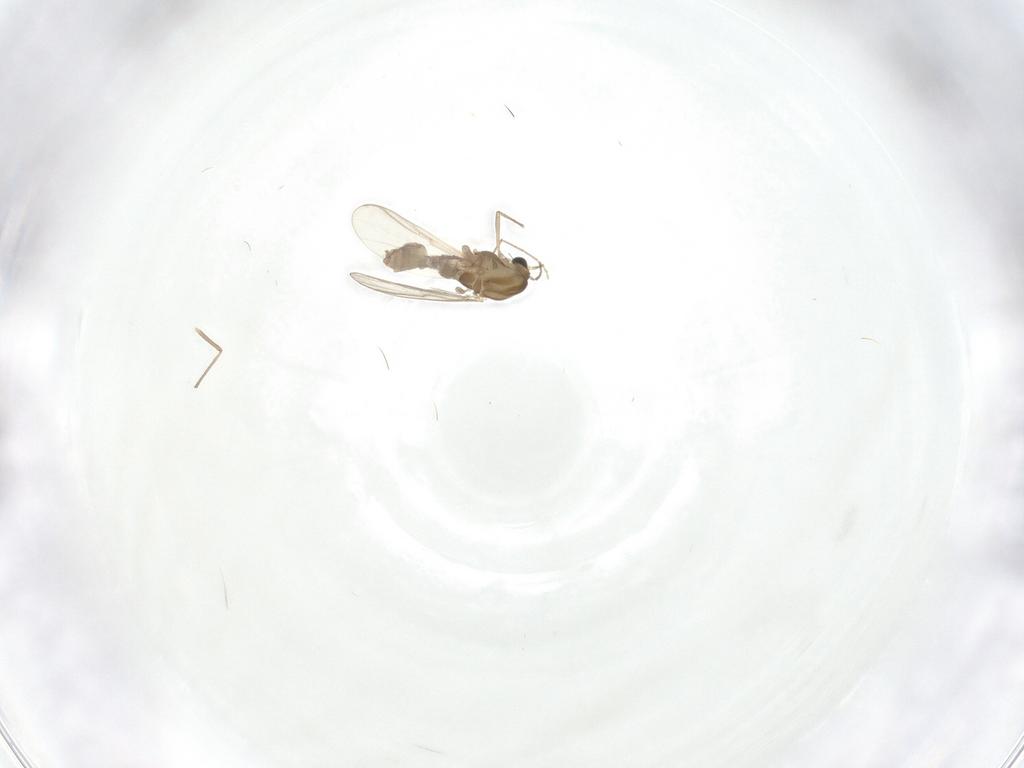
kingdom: Animalia
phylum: Arthropoda
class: Insecta
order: Diptera
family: Chironomidae
